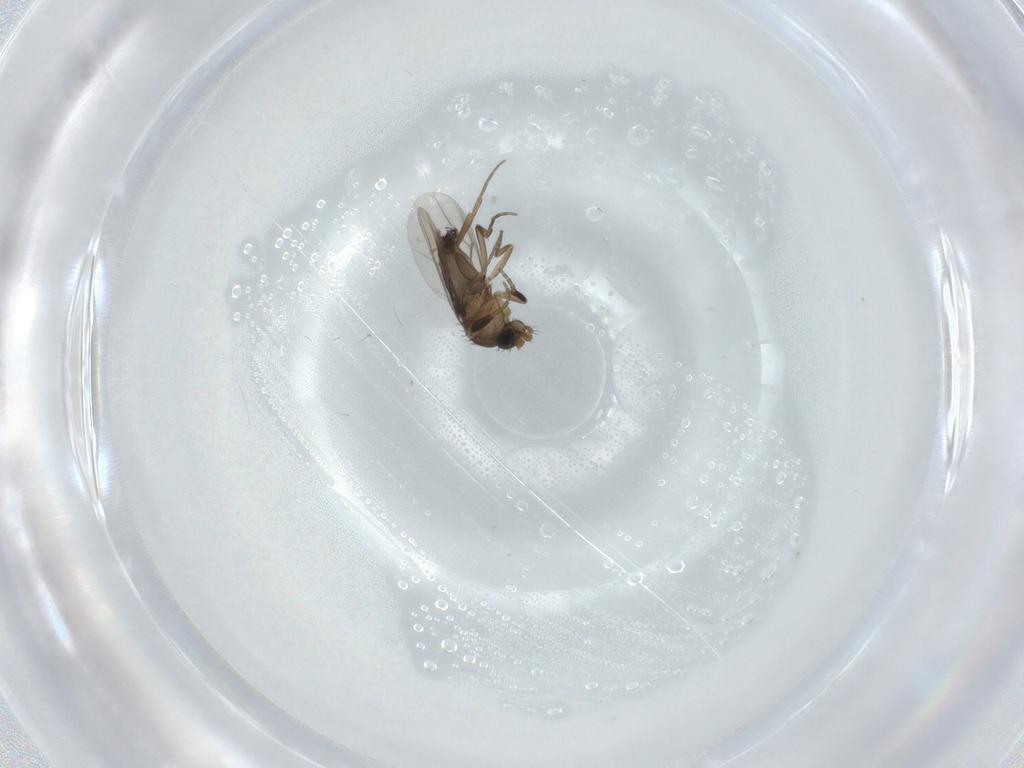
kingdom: Animalia
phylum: Arthropoda
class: Insecta
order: Diptera
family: Phoridae
